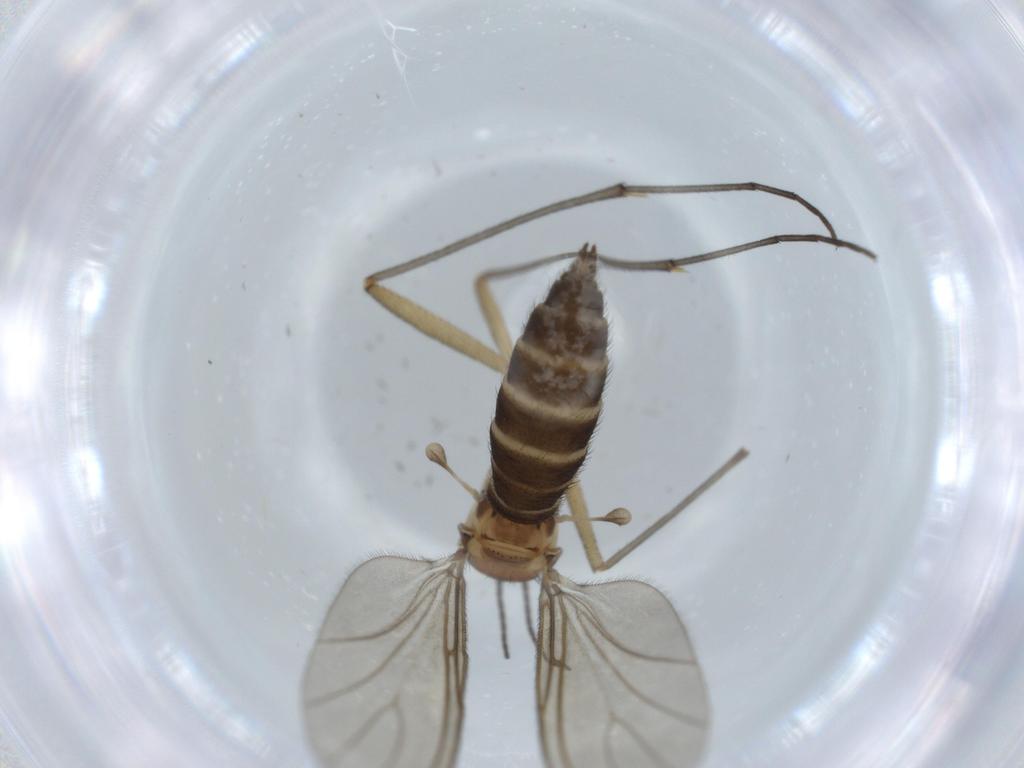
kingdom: Animalia
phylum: Arthropoda
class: Insecta
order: Diptera
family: Sciaridae
